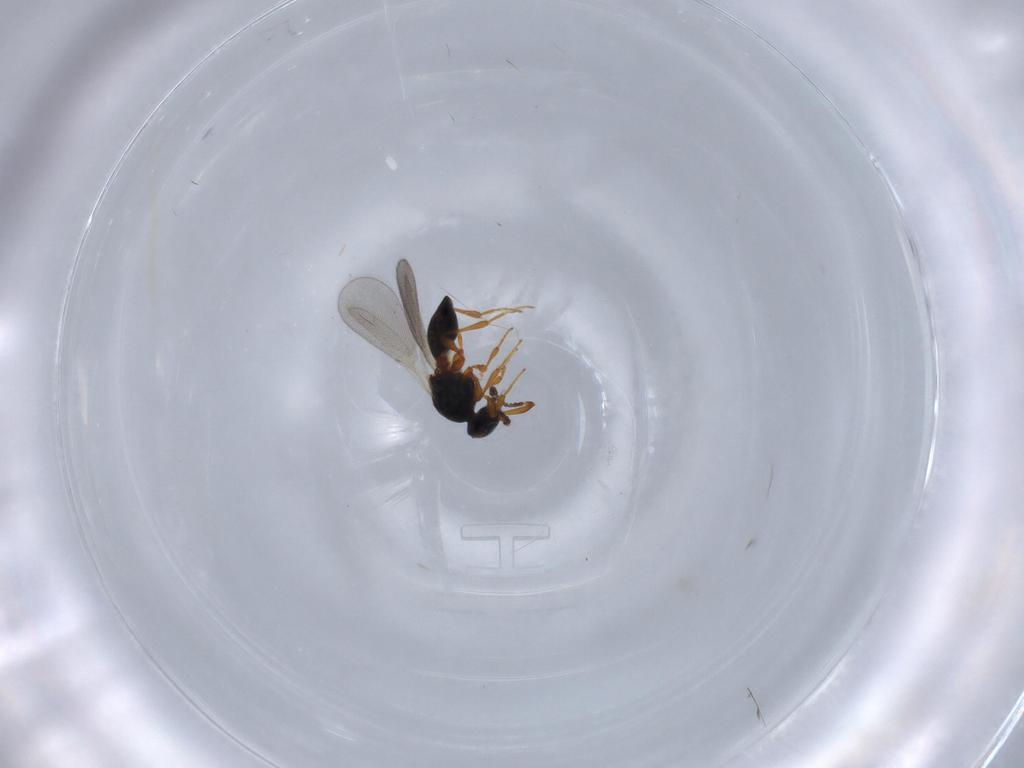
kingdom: Animalia
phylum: Arthropoda
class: Insecta
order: Hymenoptera
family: Platygastridae
